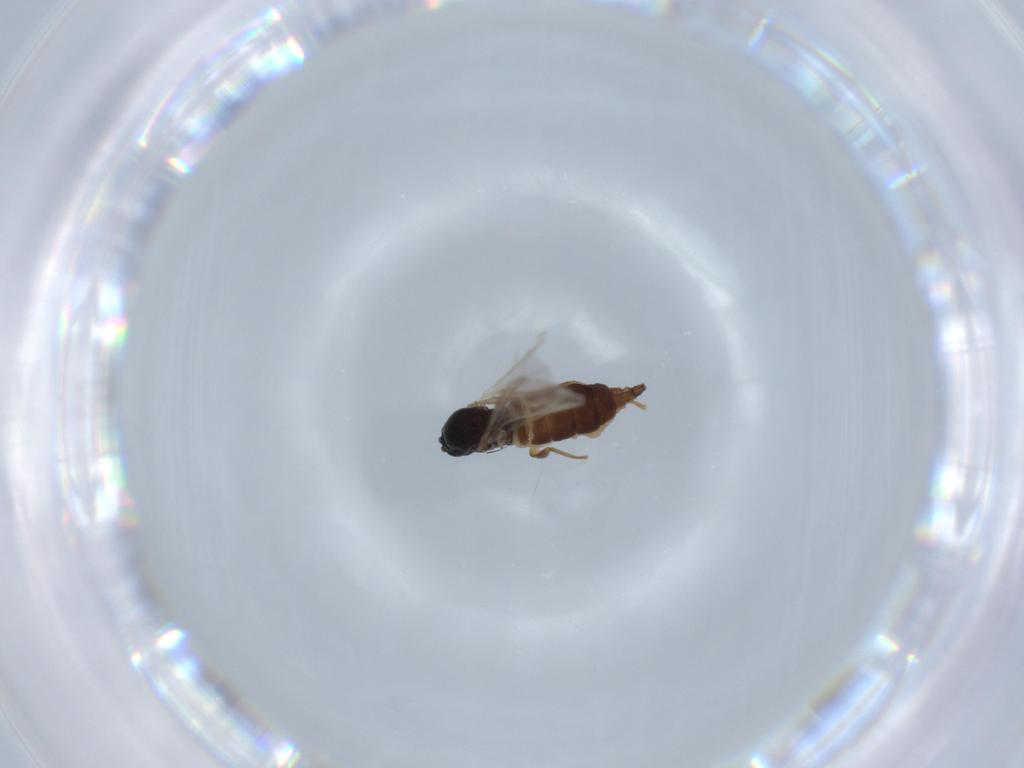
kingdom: Animalia
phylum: Arthropoda
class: Insecta
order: Diptera
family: Sciaridae
